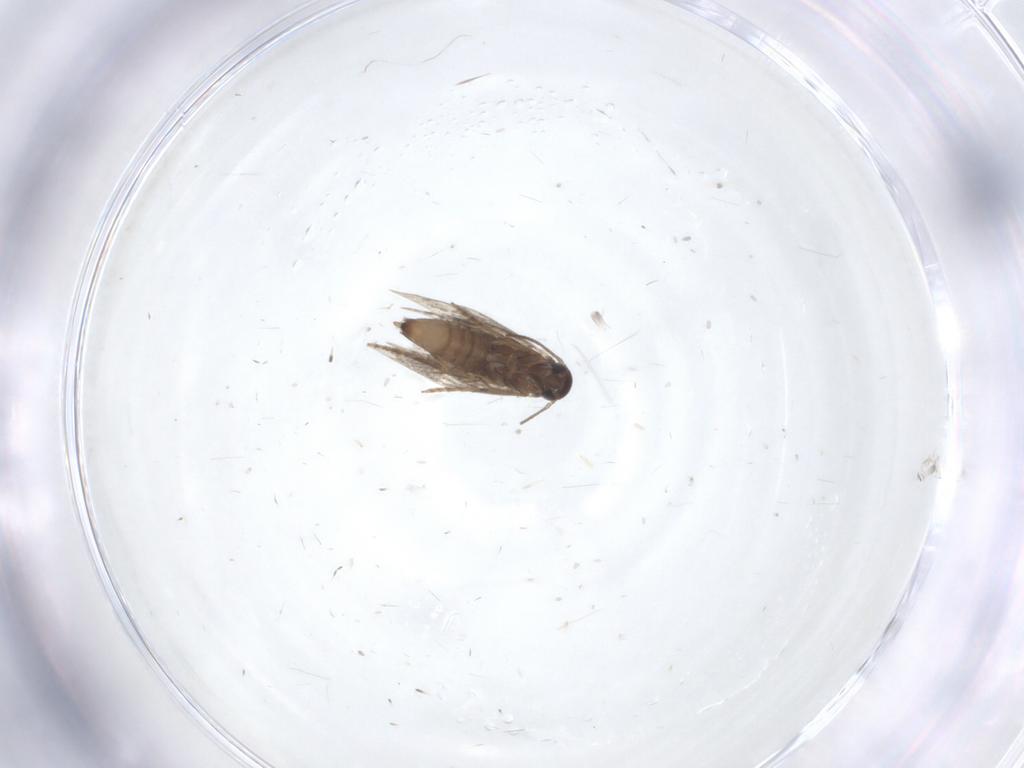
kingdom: Animalia
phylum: Arthropoda
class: Insecta
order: Lepidoptera
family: Heliozelidae
